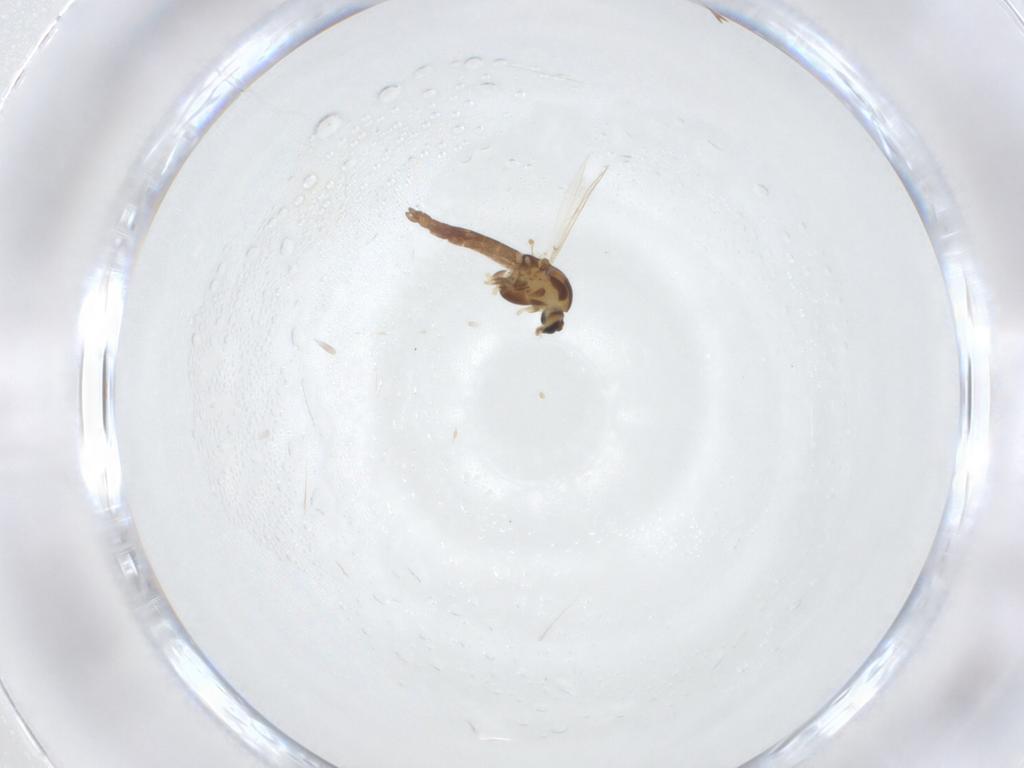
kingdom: Animalia
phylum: Arthropoda
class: Insecta
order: Diptera
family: Chironomidae
